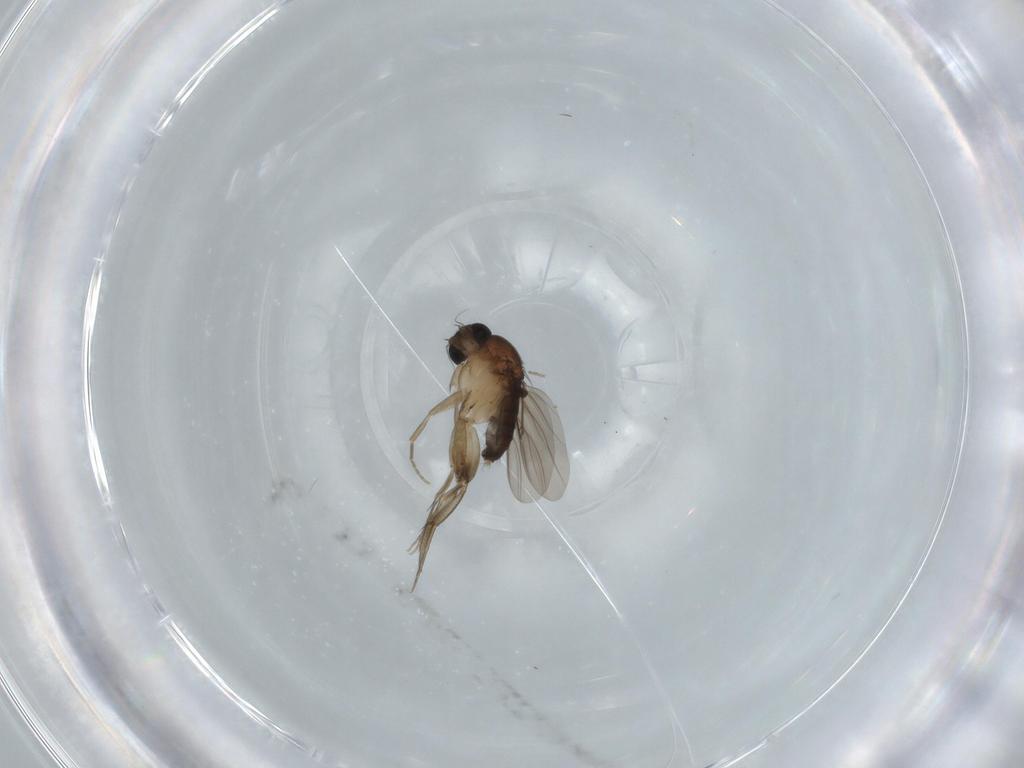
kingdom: Animalia
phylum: Arthropoda
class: Insecta
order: Diptera
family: Phoridae
